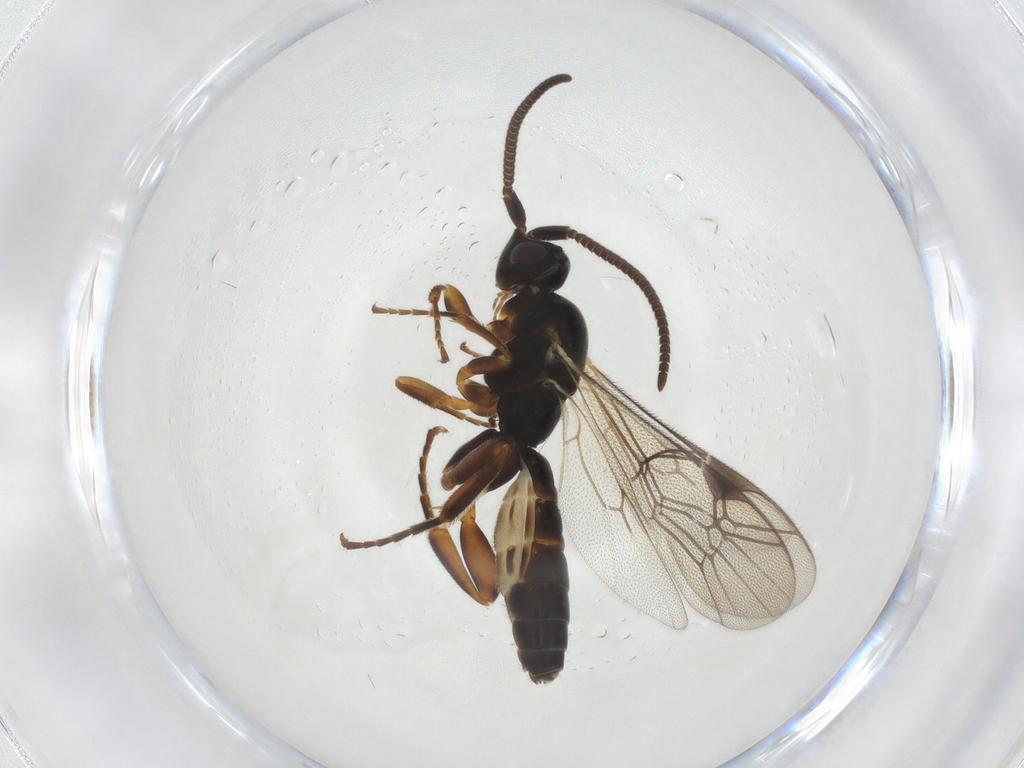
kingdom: Animalia
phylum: Arthropoda
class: Insecta
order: Hymenoptera
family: Ichneumonidae
